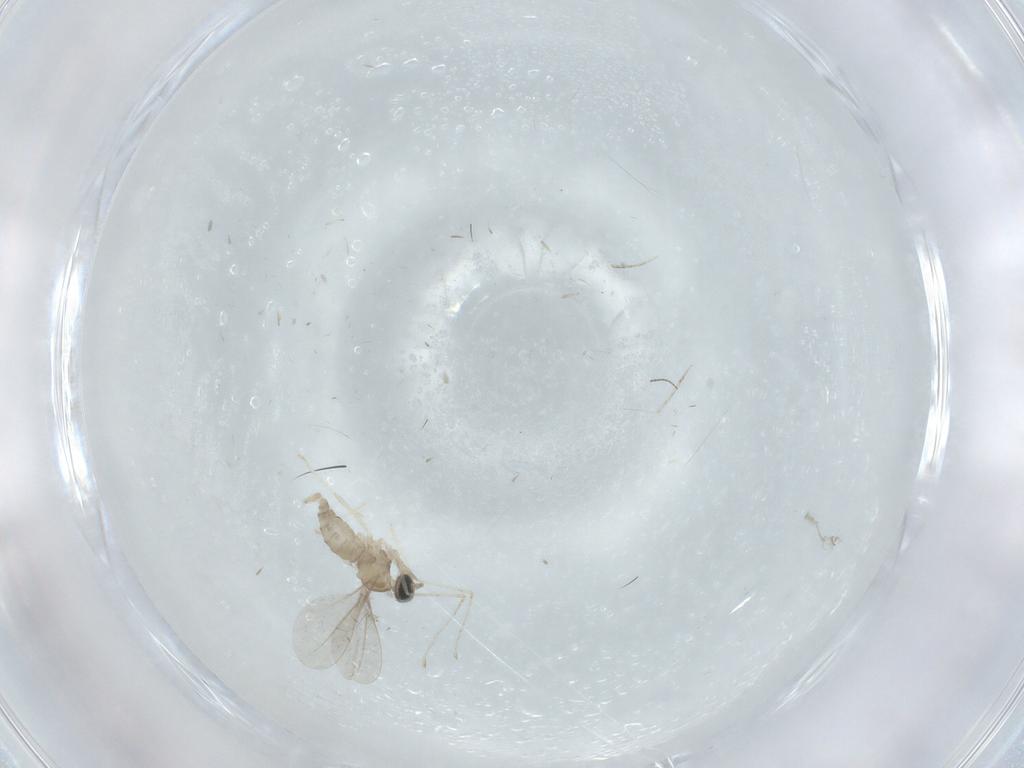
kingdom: Animalia
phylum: Arthropoda
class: Insecta
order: Diptera
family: Chironomidae
